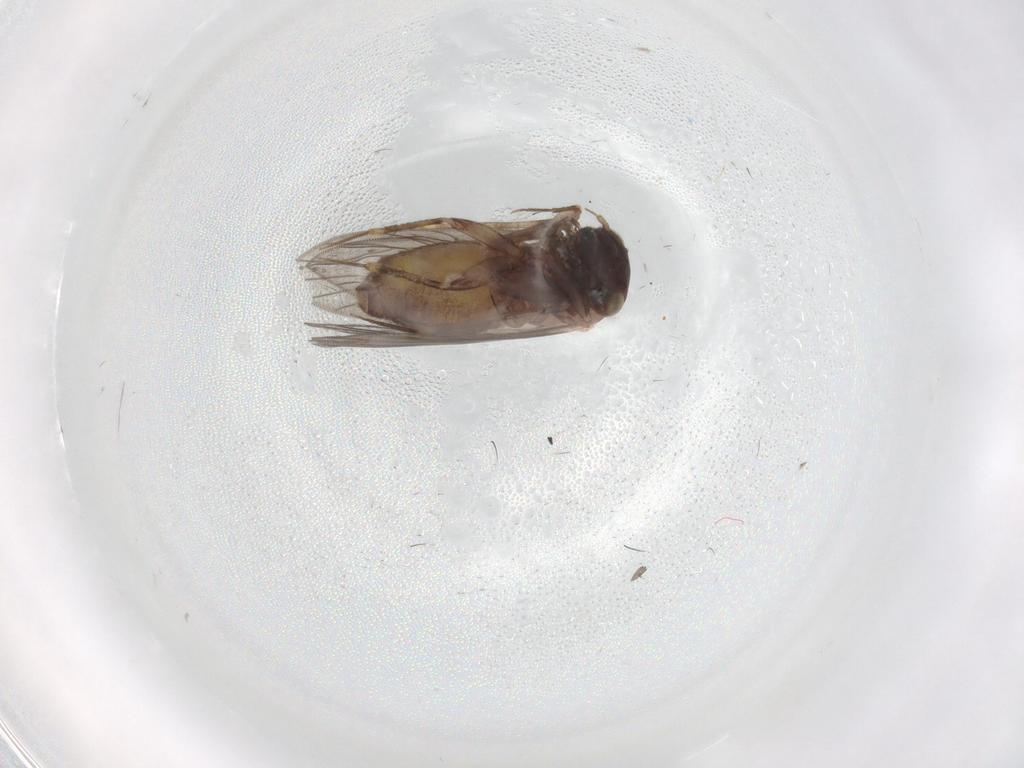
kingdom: Animalia
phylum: Arthropoda
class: Insecta
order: Psocodea
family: Lepidopsocidae
